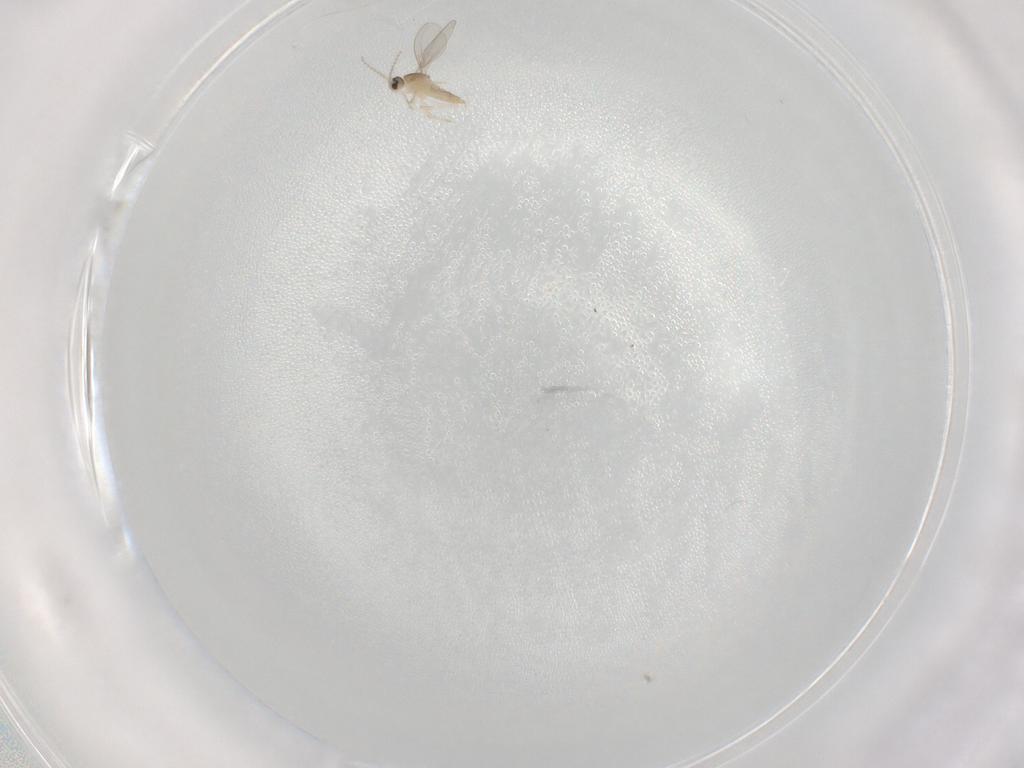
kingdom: Animalia
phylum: Arthropoda
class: Insecta
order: Diptera
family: Cecidomyiidae
